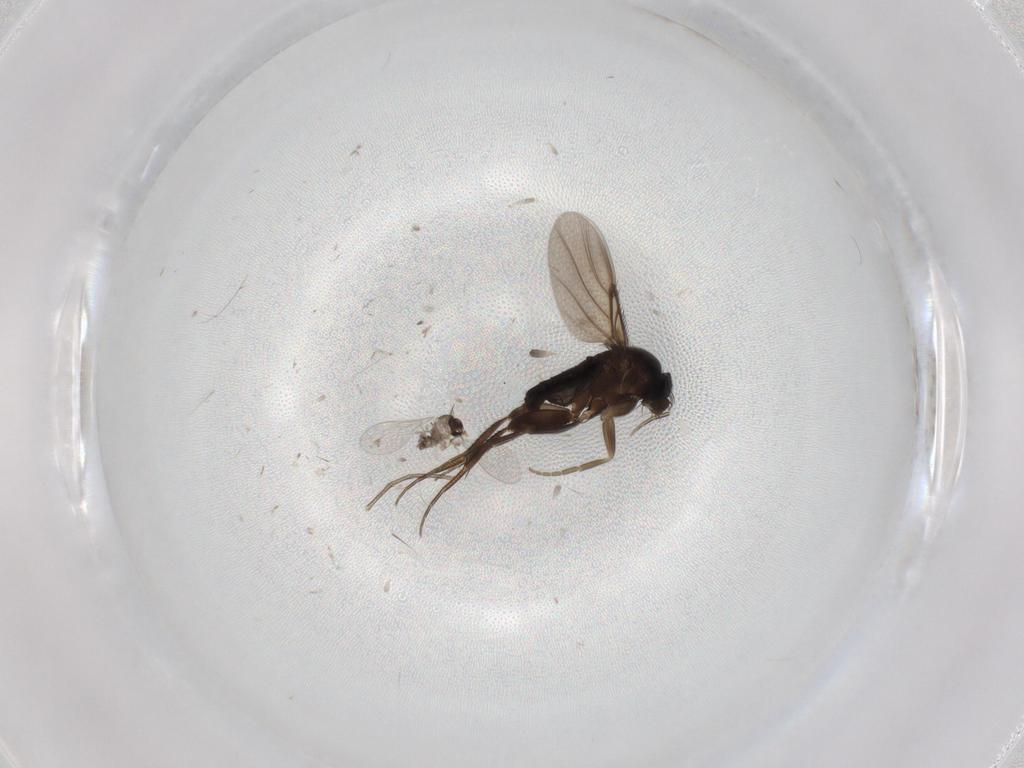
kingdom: Animalia
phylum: Arthropoda
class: Insecta
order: Diptera
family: Cecidomyiidae
